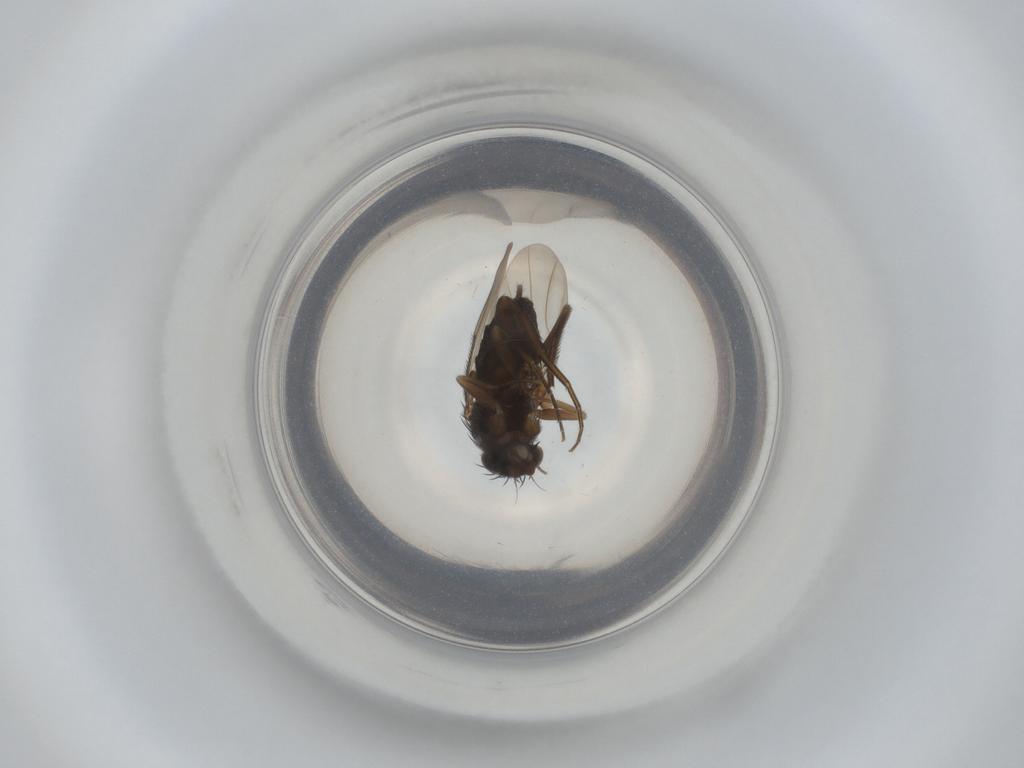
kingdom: Animalia
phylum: Arthropoda
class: Insecta
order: Diptera
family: Phoridae
